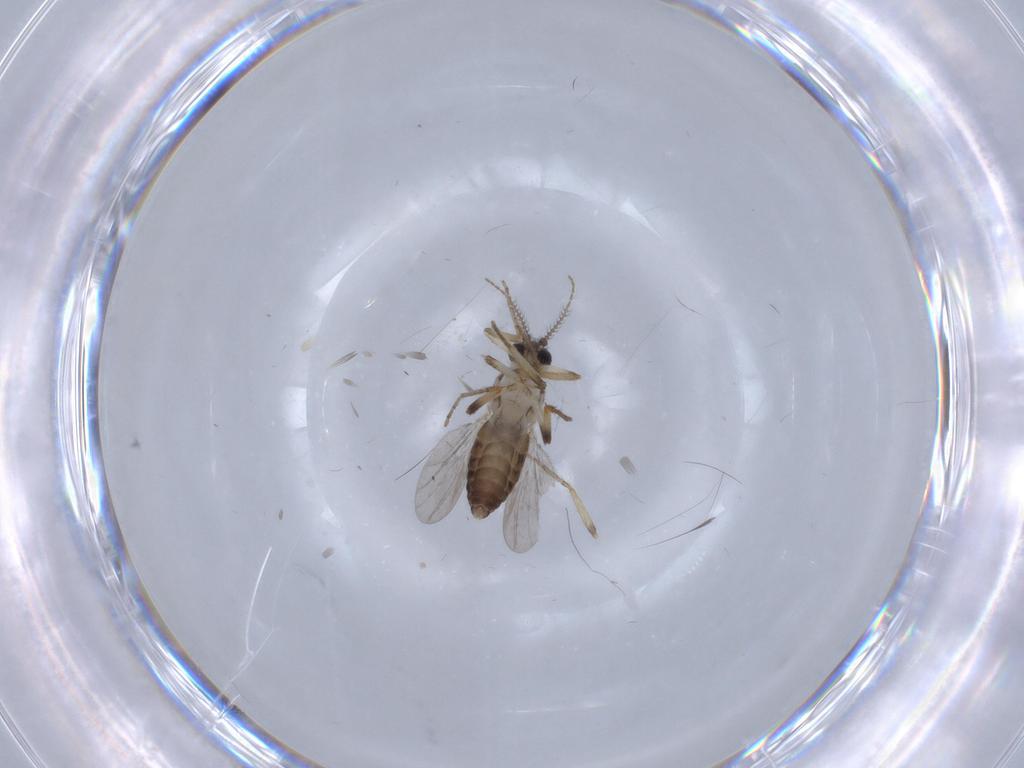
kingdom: Animalia
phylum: Arthropoda
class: Insecta
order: Diptera
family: Ceratopogonidae
